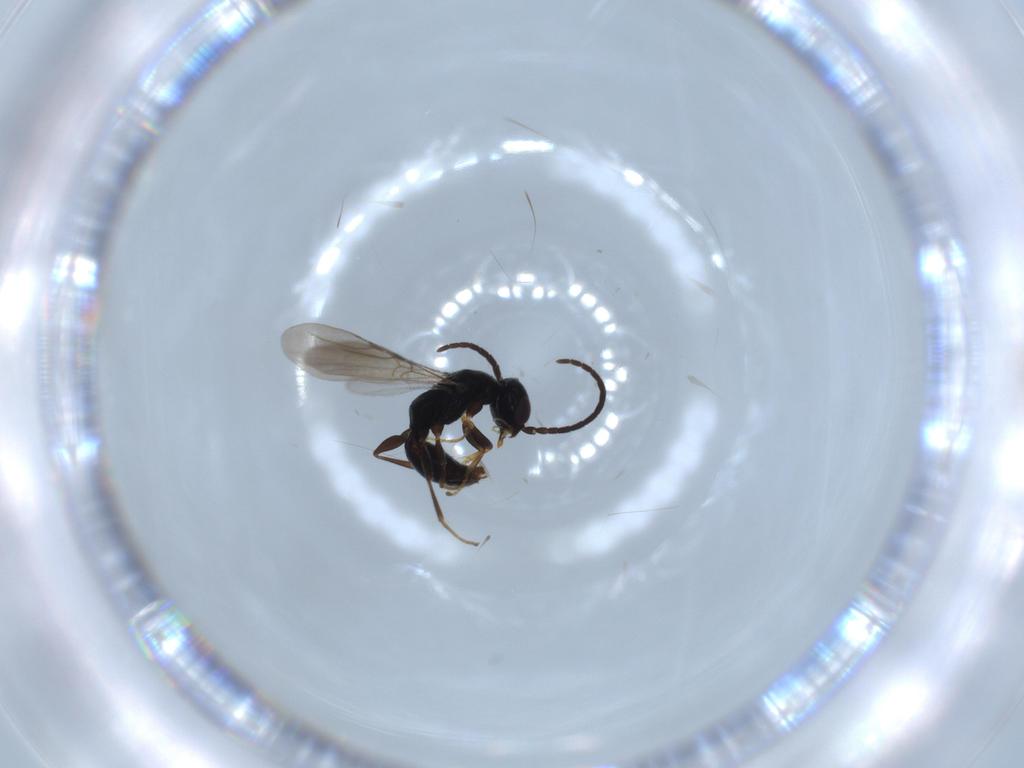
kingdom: Animalia
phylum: Arthropoda
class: Insecta
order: Hymenoptera
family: Bethylidae
